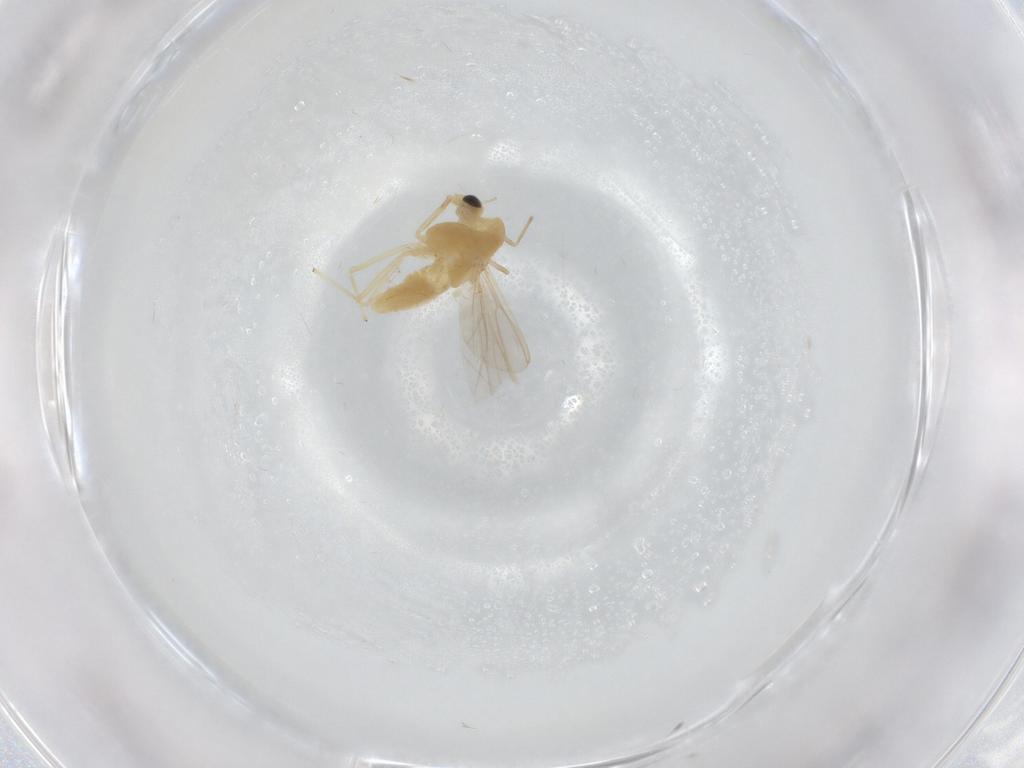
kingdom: Animalia
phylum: Arthropoda
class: Insecta
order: Diptera
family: Chironomidae
